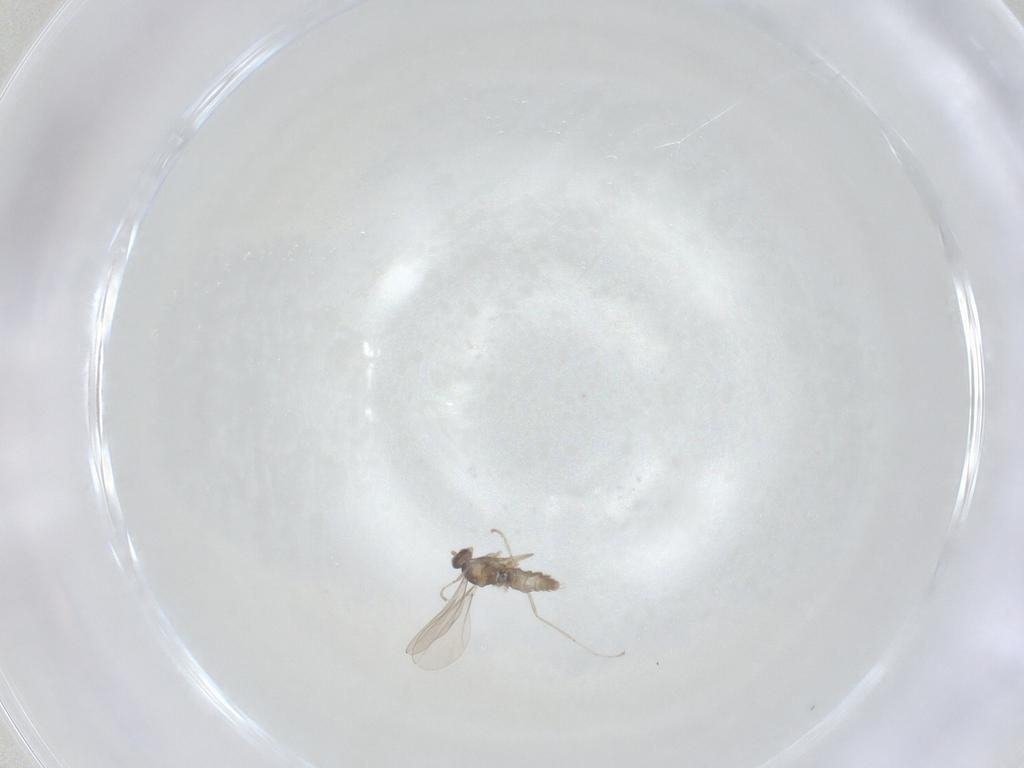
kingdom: Animalia
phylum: Arthropoda
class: Insecta
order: Diptera
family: Cecidomyiidae
